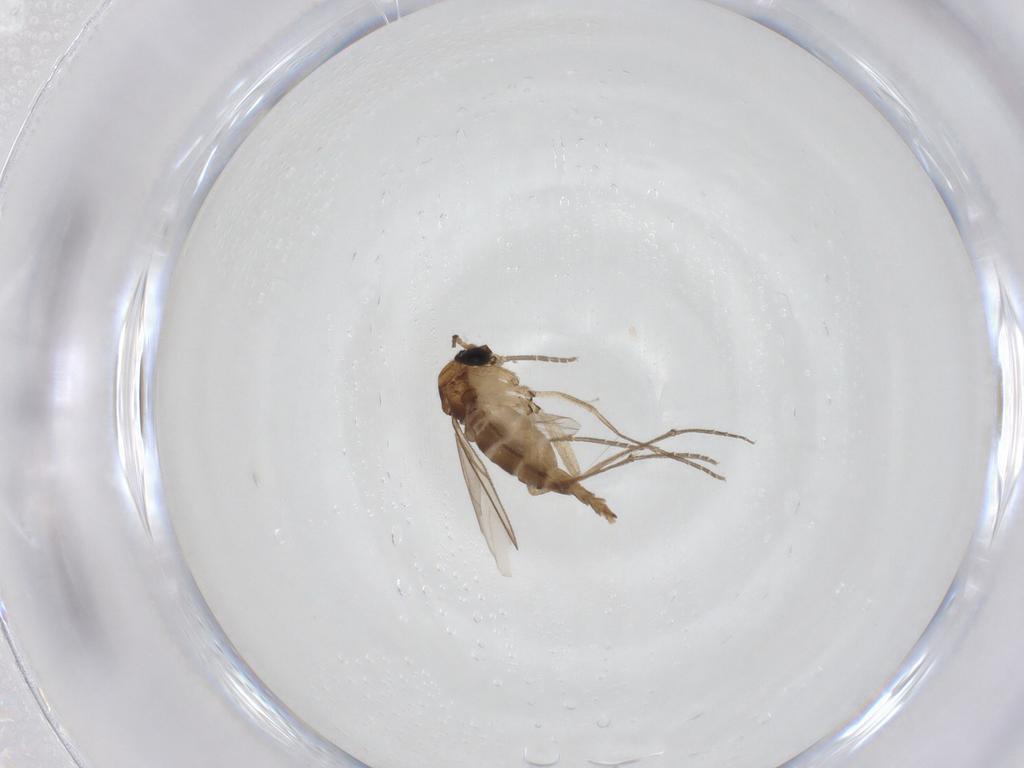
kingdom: Animalia
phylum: Arthropoda
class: Insecta
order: Diptera
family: Sciaridae
